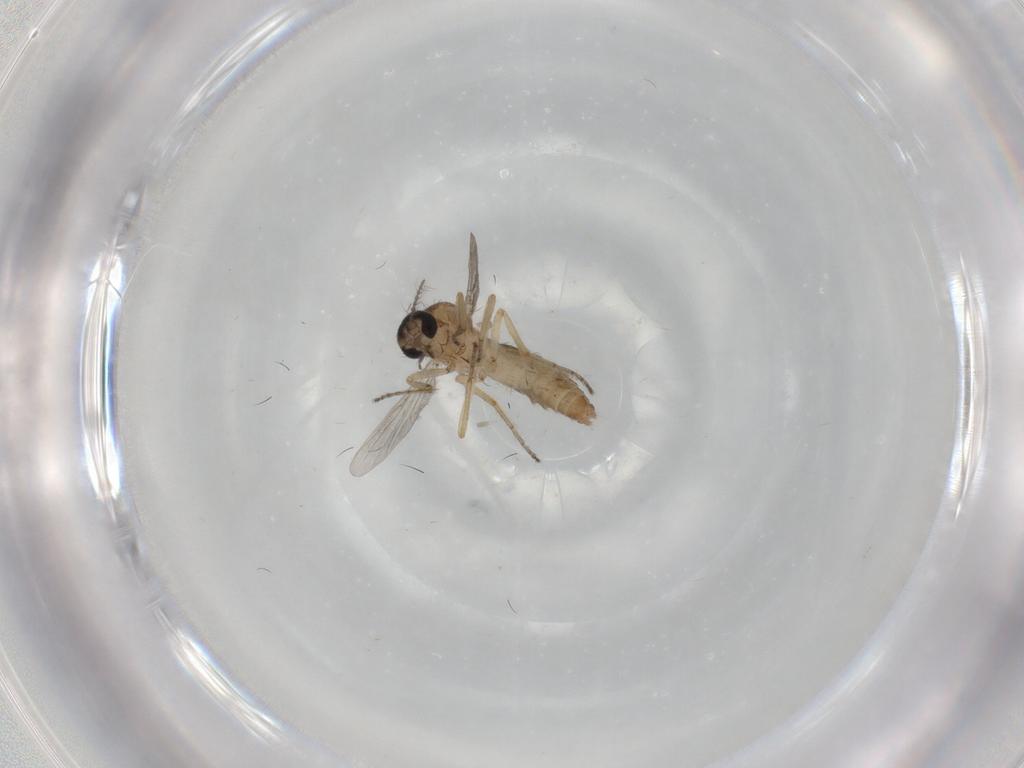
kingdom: Animalia
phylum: Arthropoda
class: Insecta
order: Diptera
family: Ceratopogonidae
